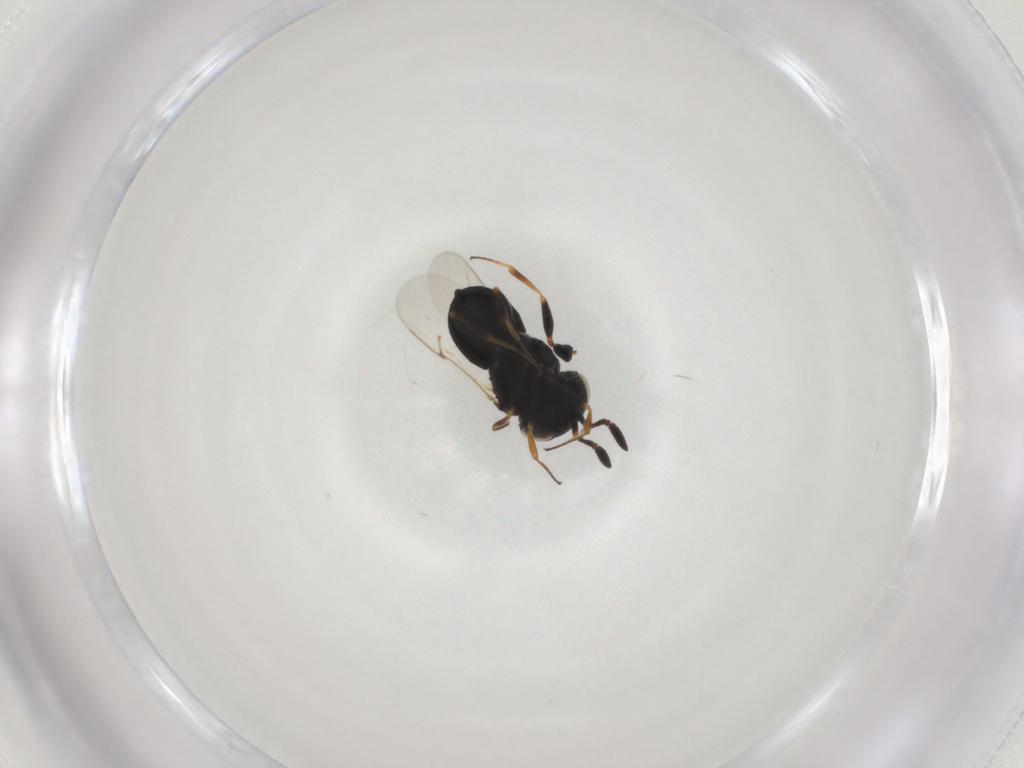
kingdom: Animalia
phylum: Arthropoda
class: Insecta
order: Hymenoptera
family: Scelionidae
